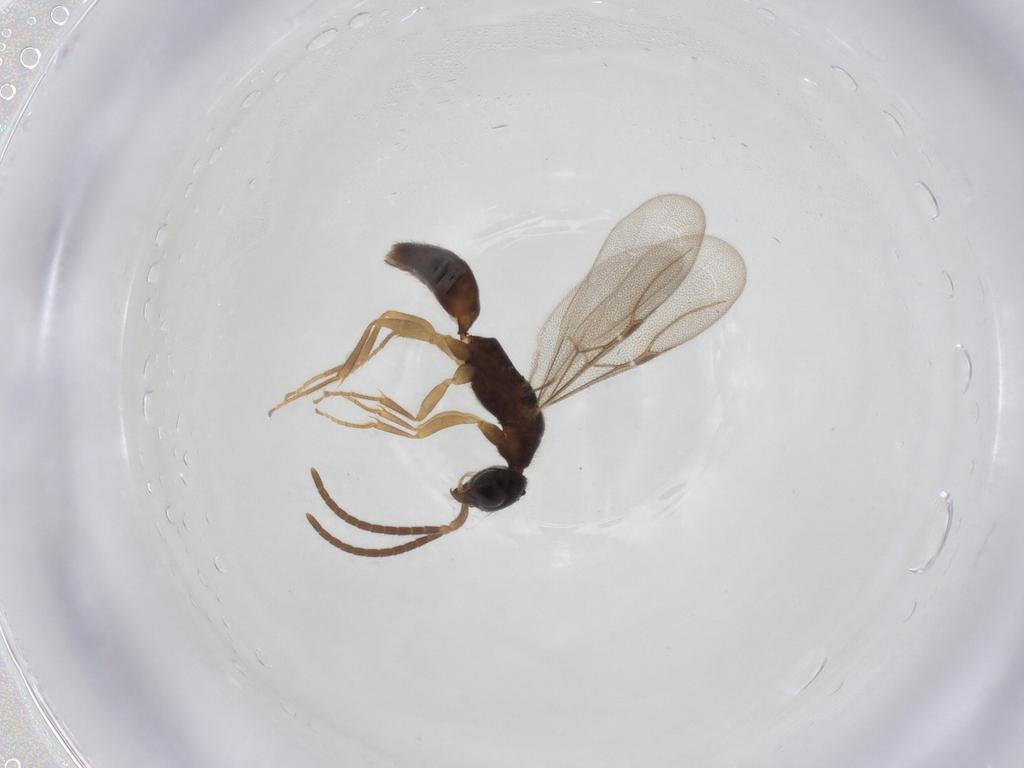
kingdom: Animalia
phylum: Arthropoda
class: Insecta
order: Hymenoptera
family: Bethylidae
